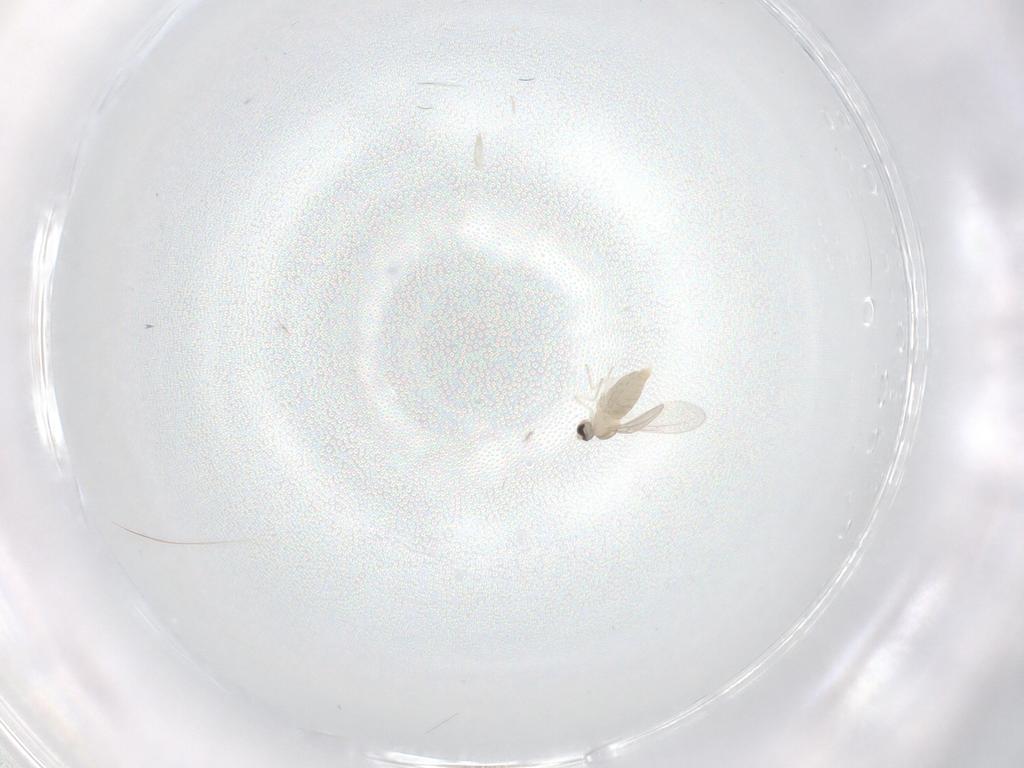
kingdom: Animalia
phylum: Arthropoda
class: Insecta
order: Diptera
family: Cecidomyiidae
